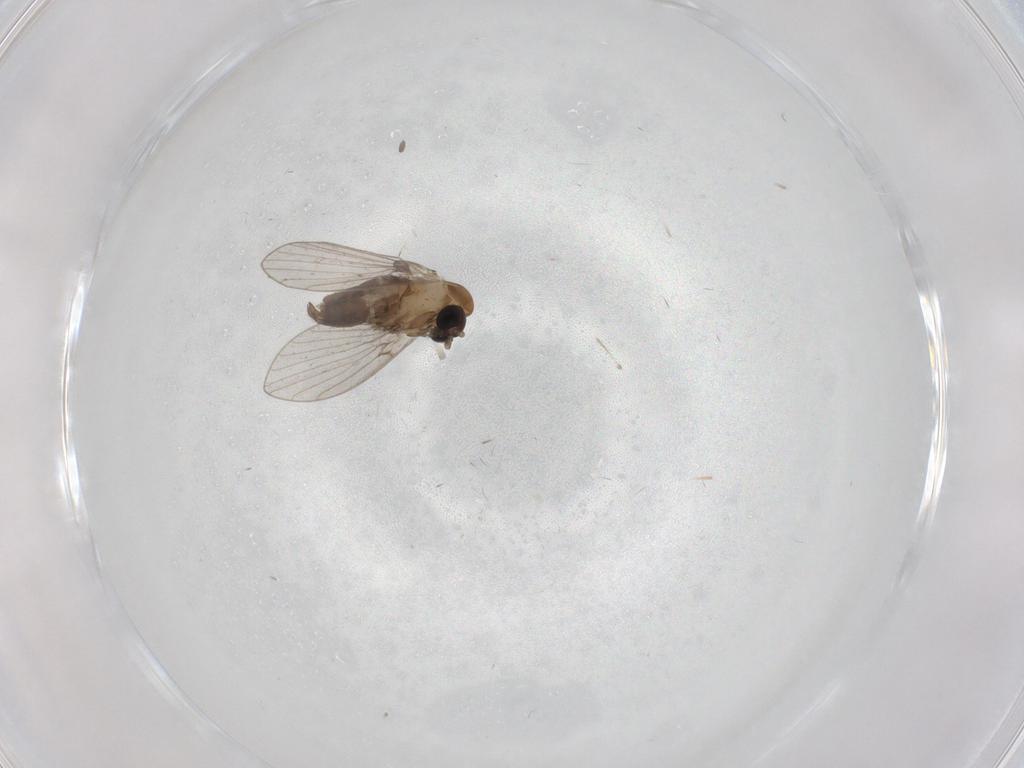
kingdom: Animalia
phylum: Arthropoda
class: Insecta
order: Diptera
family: Psychodidae
